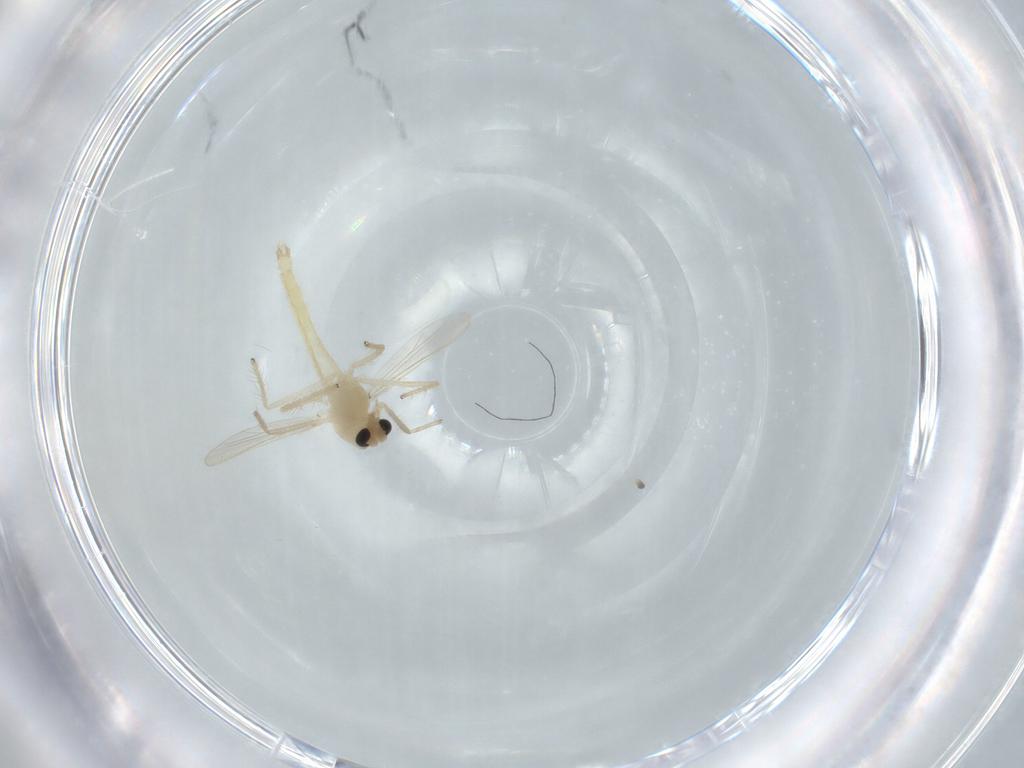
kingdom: Animalia
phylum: Arthropoda
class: Insecta
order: Diptera
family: Chironomidae
